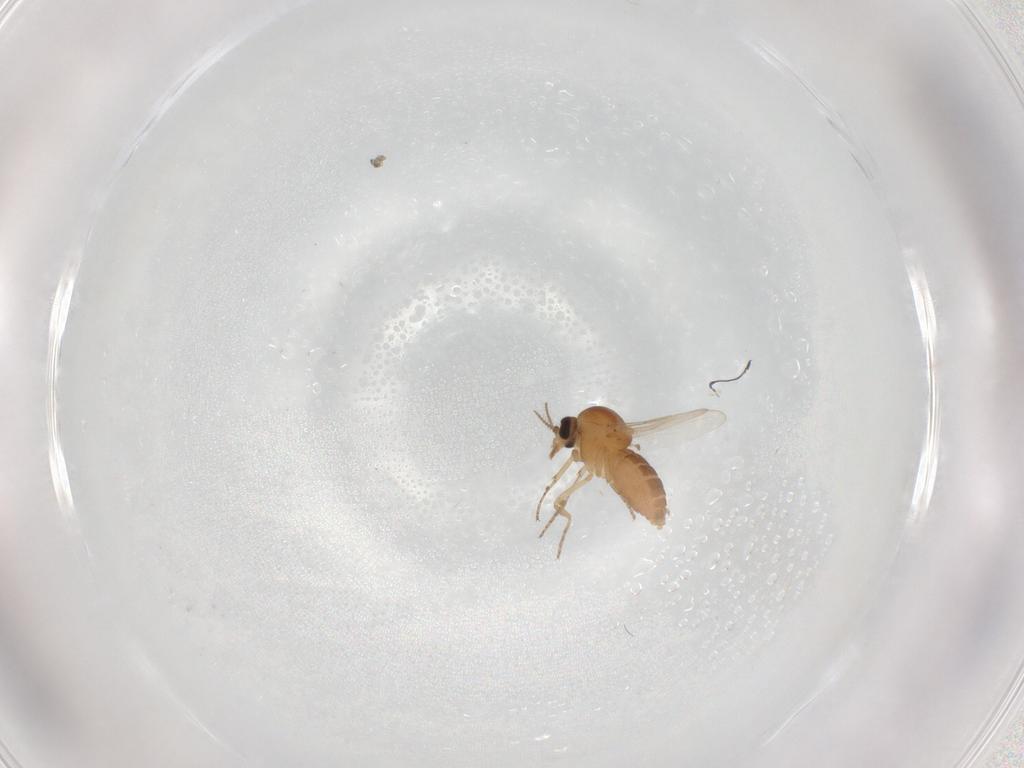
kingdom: Animalia
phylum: Arthropoda
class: Insecta
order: Diptera
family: Ceratopogonidae
